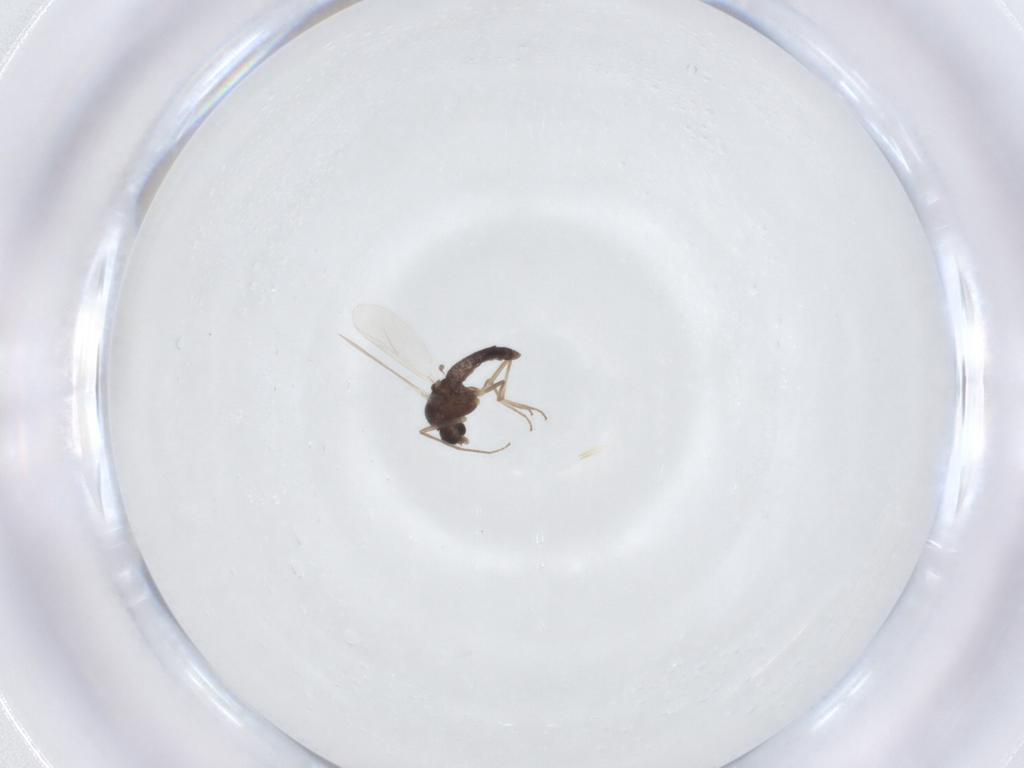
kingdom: Animalia
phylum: Arthropoda
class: Insecta
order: Diptera
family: Chironomidae
